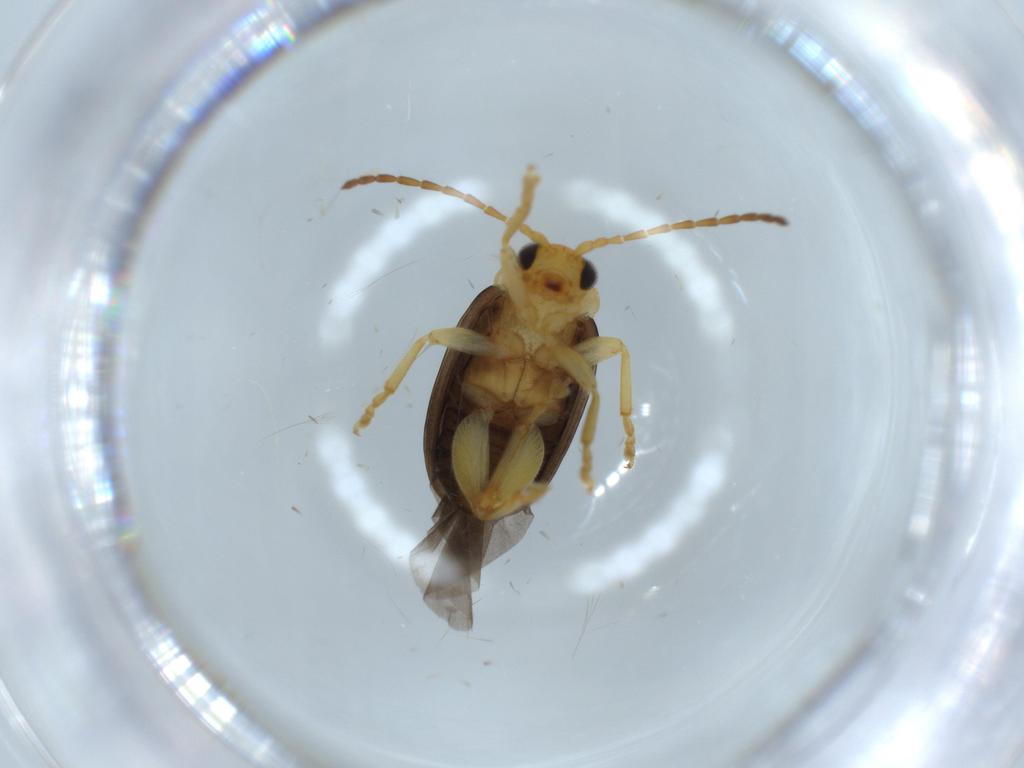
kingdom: Animalia
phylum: Arthropoda
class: Insecta
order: Coleoptera
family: Chrysomelidae
